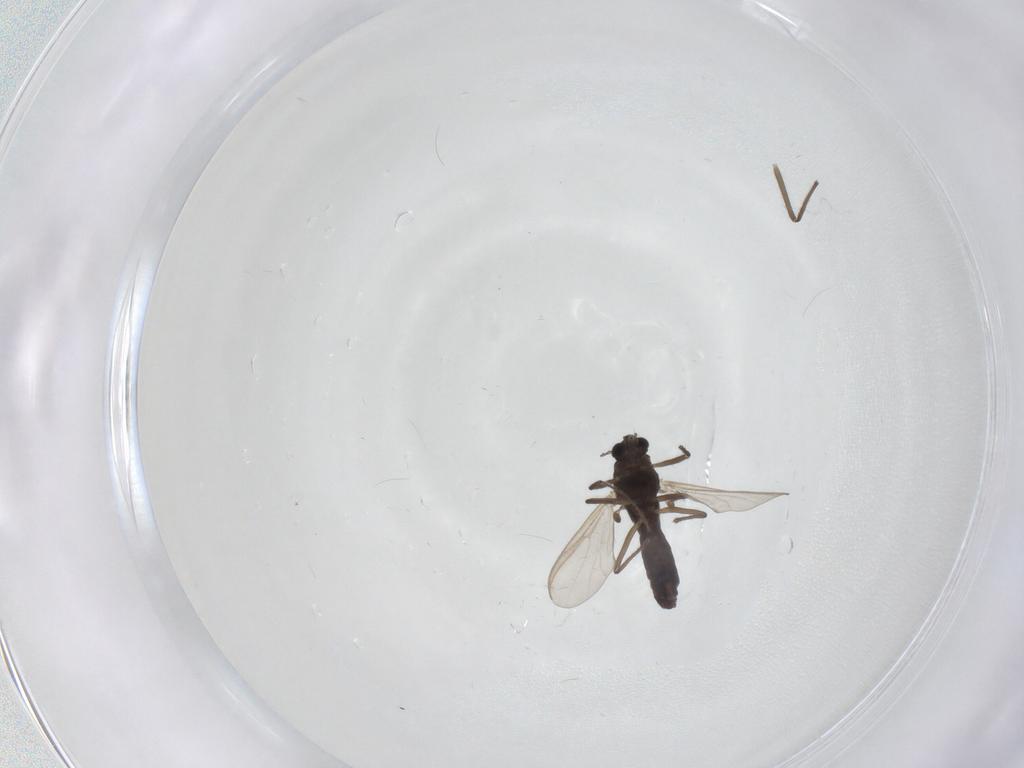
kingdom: Animalia
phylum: Arthropoda
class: Insecta
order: Diptera
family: Chironomidae
